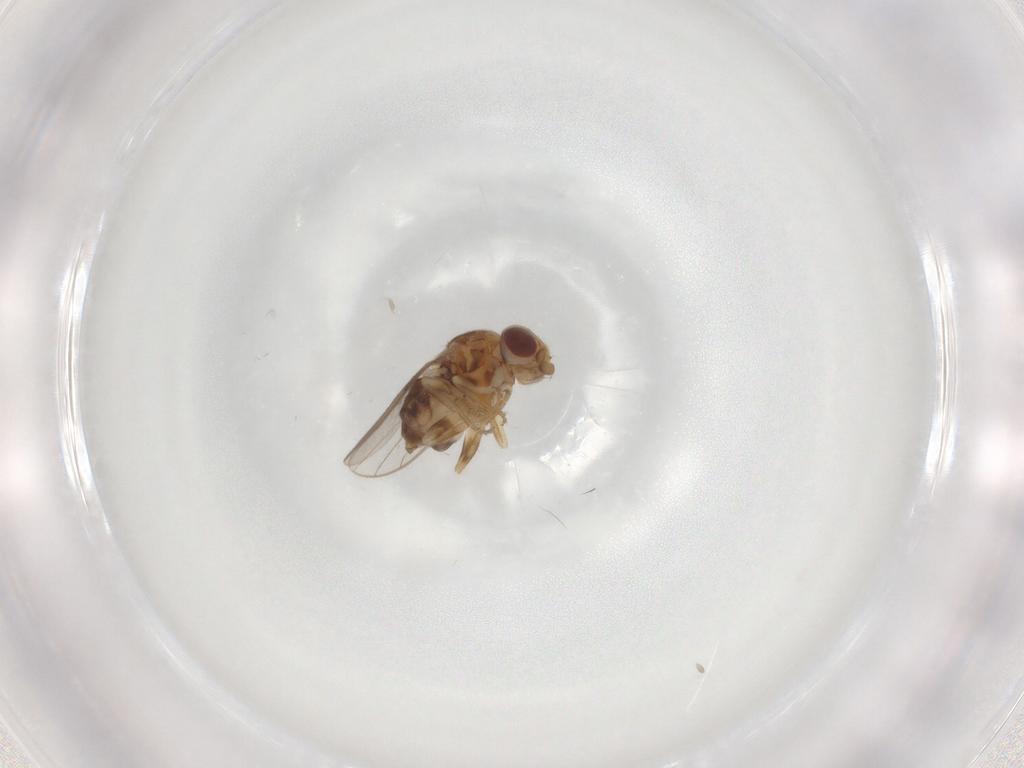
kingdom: Animalia
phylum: Arthropoda
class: Insecta
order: Diptera
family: Chloropidae
